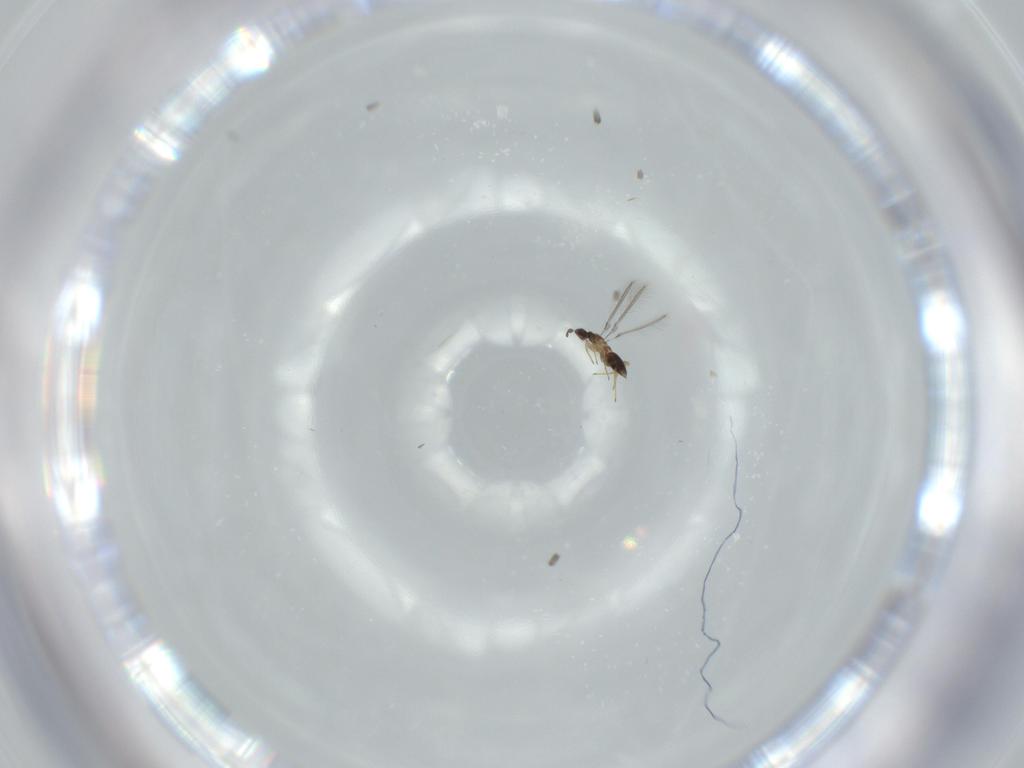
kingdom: Animalia
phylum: Arthropoda
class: Insecta
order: Hymenoptera
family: Mymaridae
